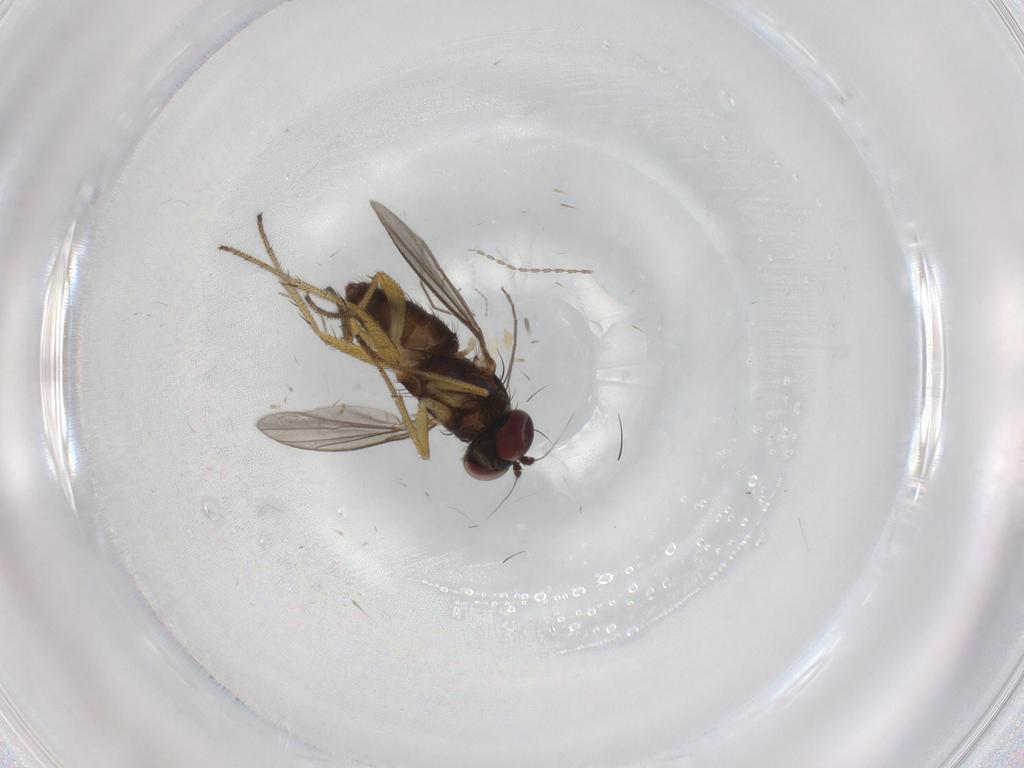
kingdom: Animalia
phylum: Arthropoda
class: Insecta
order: Diptera
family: Chironomidae
